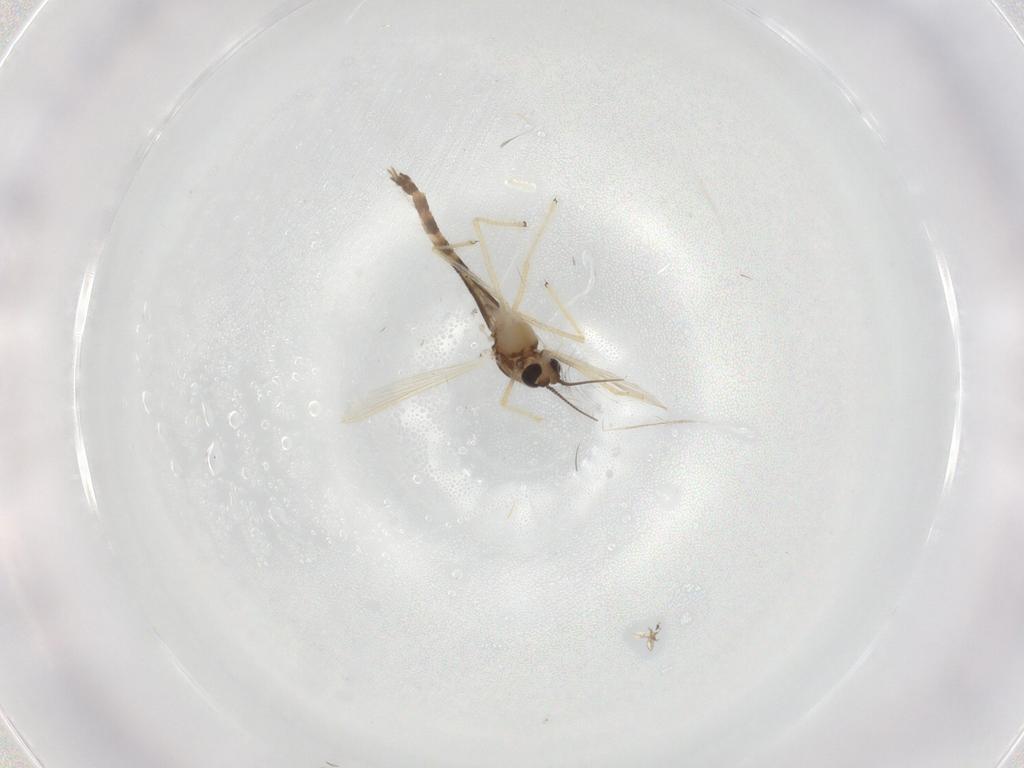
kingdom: Animalia
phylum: Arthropoda
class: Insecta
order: Diptera
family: Chironomidae
